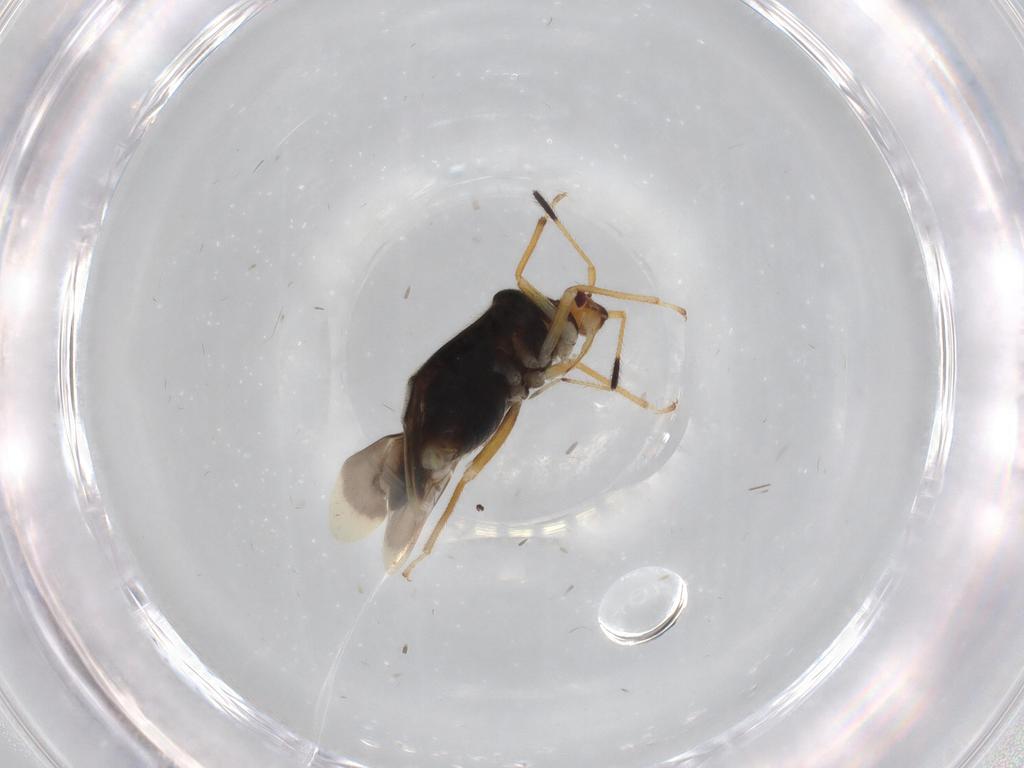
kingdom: Animalia
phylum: Arthropoda
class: Insecta
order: Hemiptera
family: Miridae
